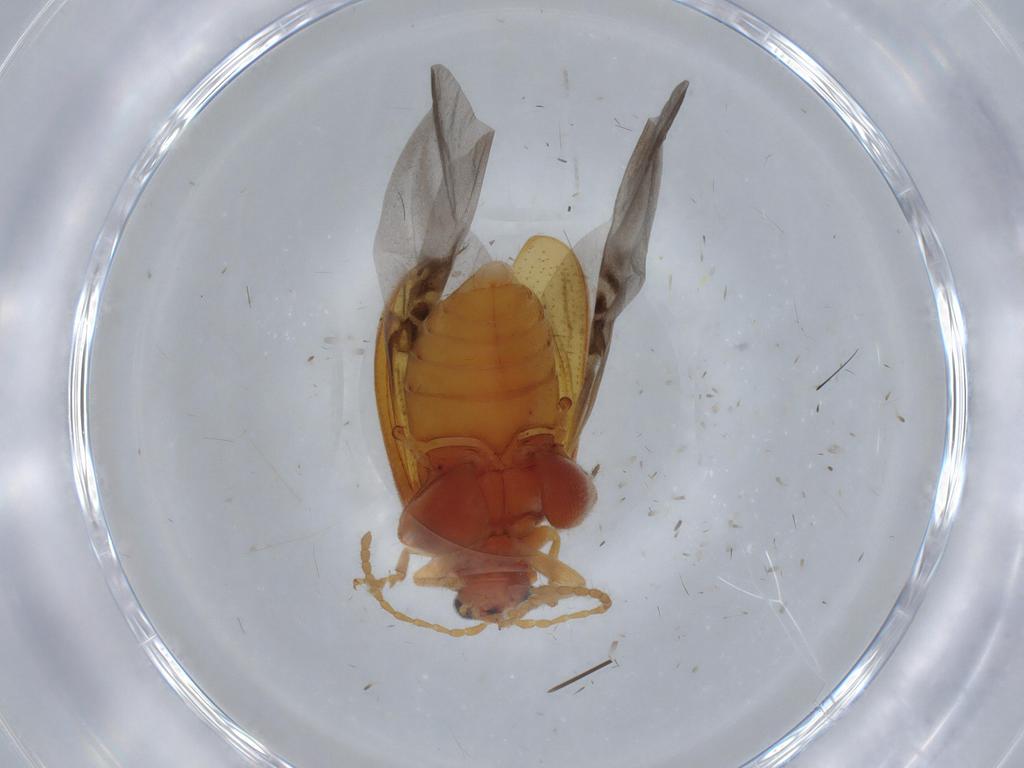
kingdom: Animalia
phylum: Arthropoda
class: Insecta
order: Coleoptera
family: Chrysomelidae
